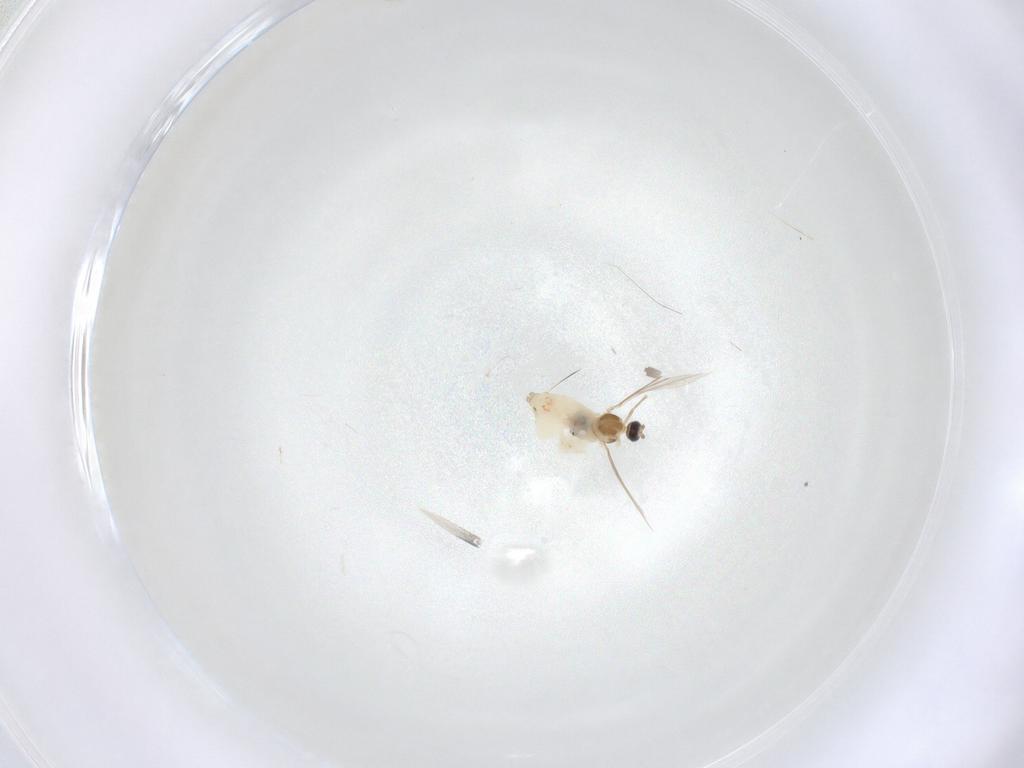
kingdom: Animalia
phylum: Arthropoda
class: Insecta
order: Diptera
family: Cecidomyiidae
